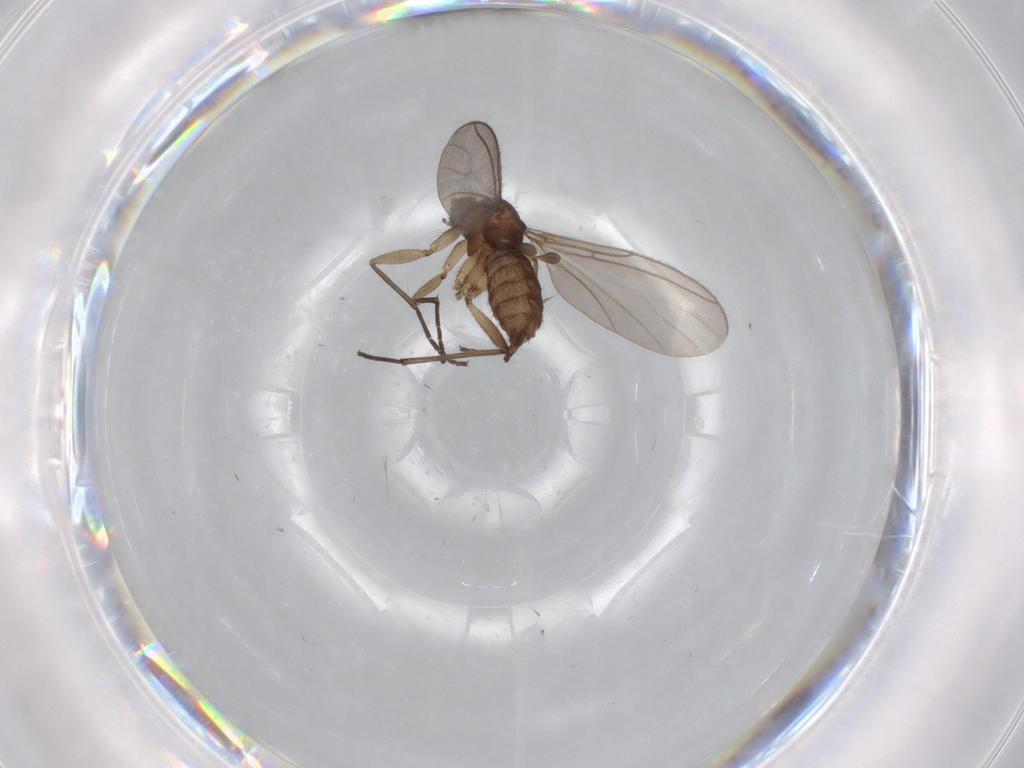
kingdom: Animalia
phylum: Arthropoda
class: Insecta
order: Diptera
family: Sciaridae
